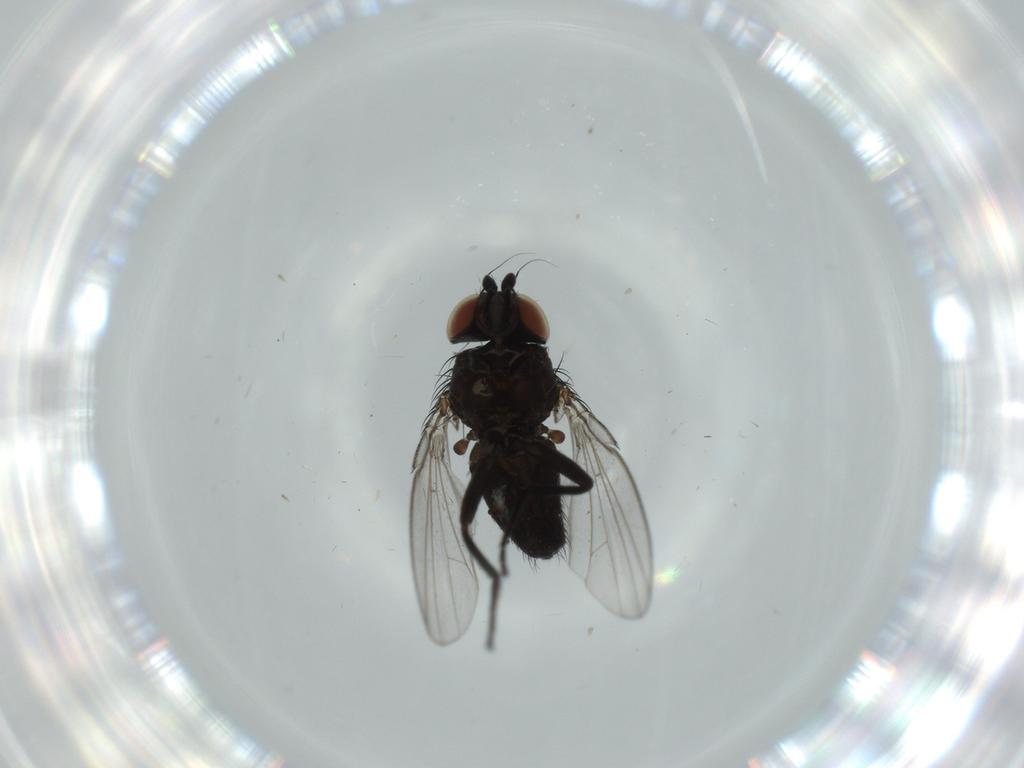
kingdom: Animalia
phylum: Arthropoda
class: Insecta
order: Diptera
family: Milichiidae
